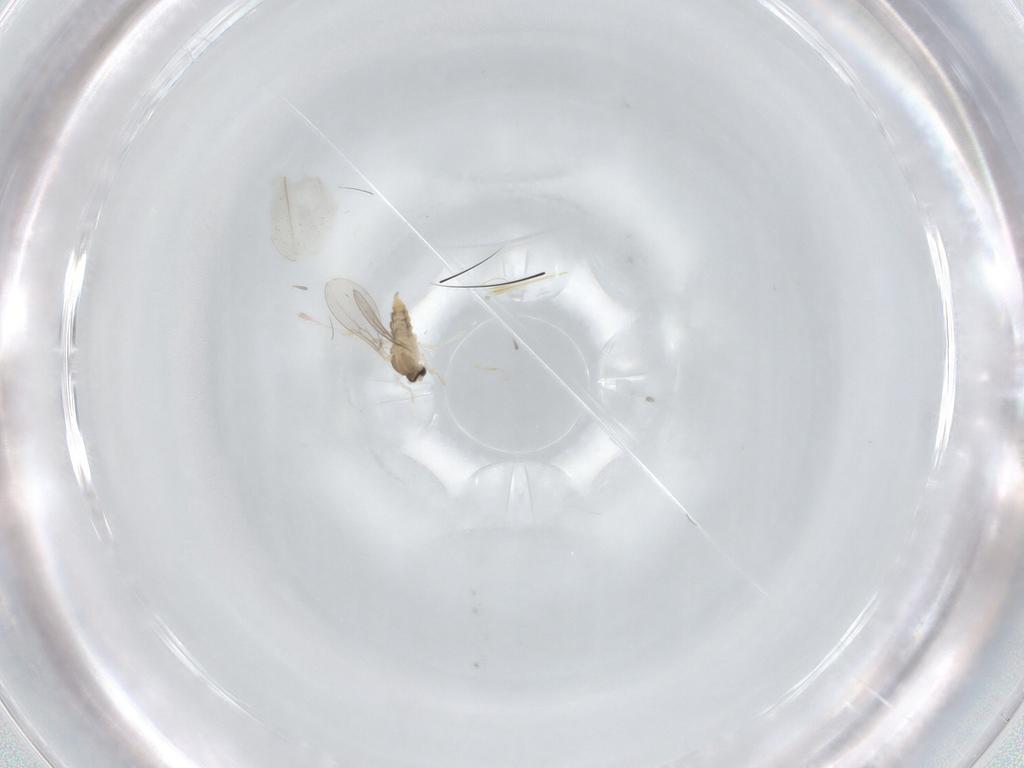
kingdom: Animalia
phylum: Arthropoda
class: Insecta
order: Diptera
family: Cecidomyiidae
